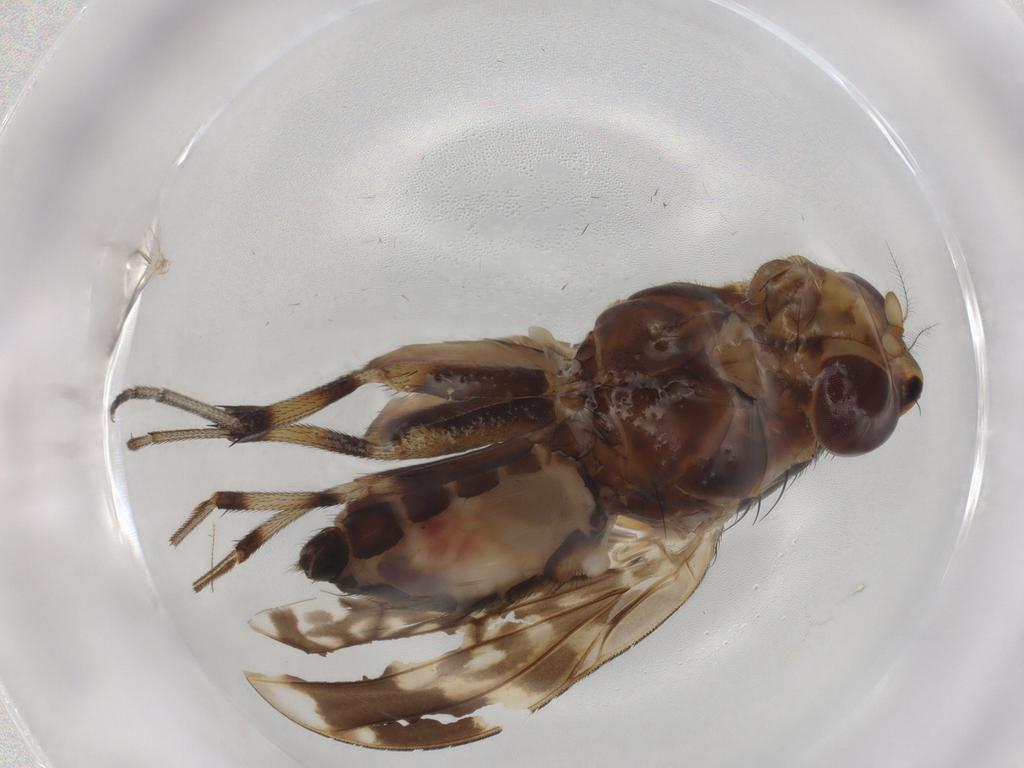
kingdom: Animalia
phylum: Arthropoda
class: Insecta
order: Diptera
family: Ceratopogonidae
